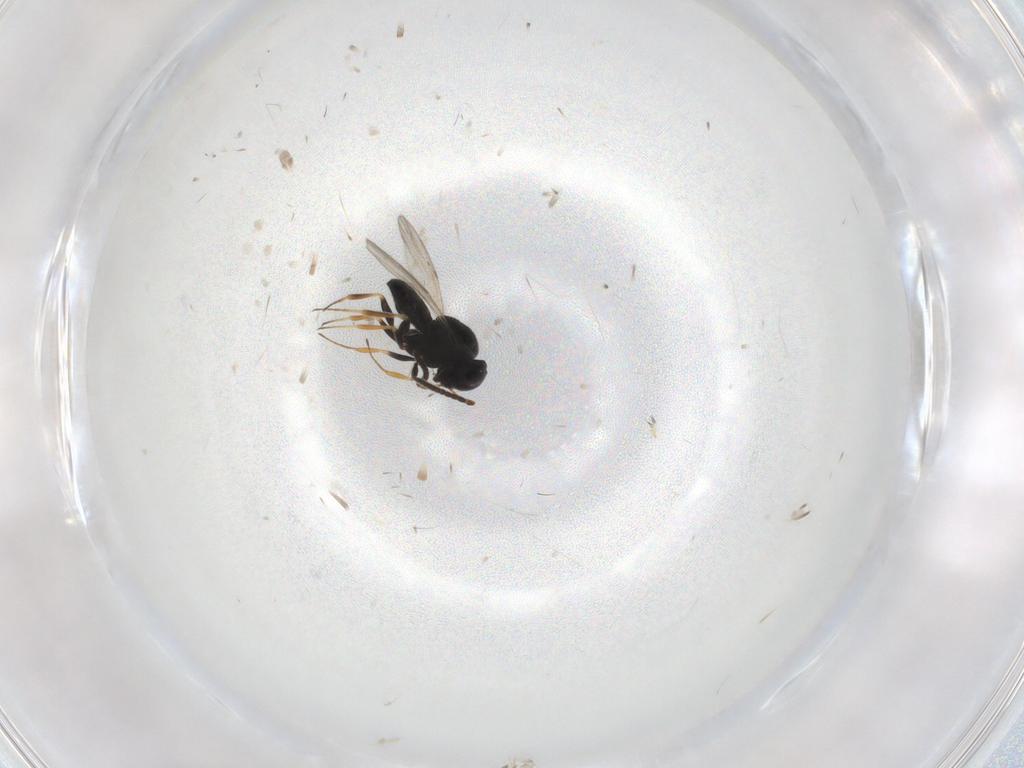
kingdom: Animalia
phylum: Arthropoda
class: Insecta
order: Coleoptera
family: Curculionidae
